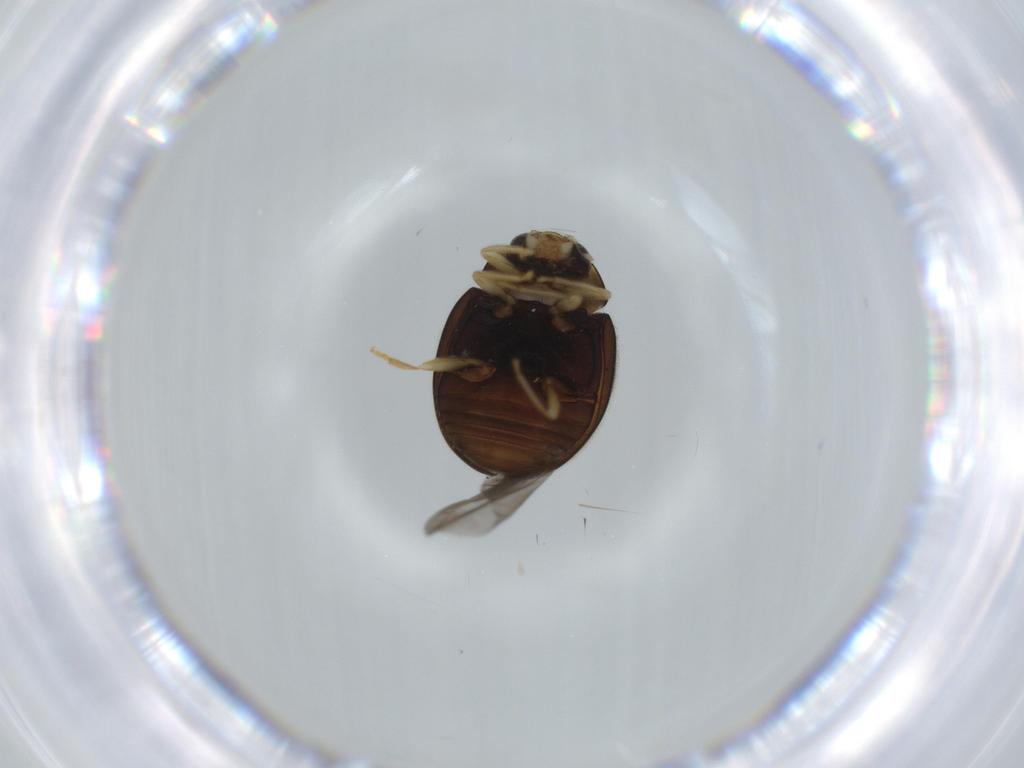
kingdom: Animalia
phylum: Arthropoda
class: Insecta
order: Coleoptera
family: Coccinellidae
